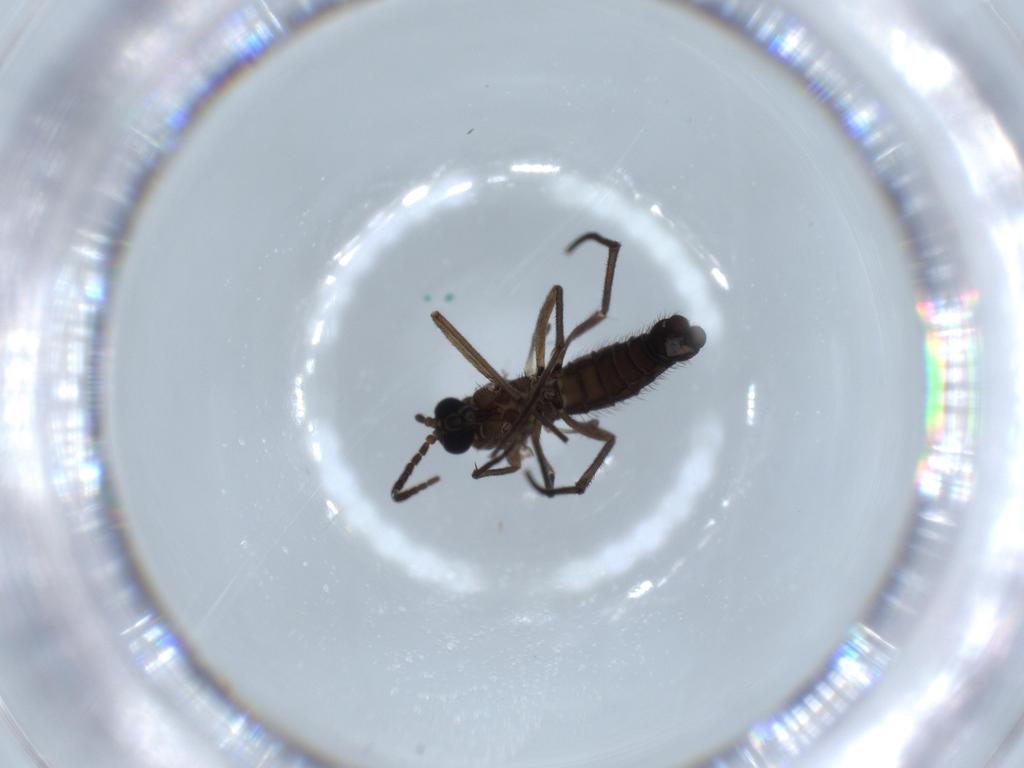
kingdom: Animalia
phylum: Arthropoda
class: Insecta
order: Diptera
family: Sciaridae
